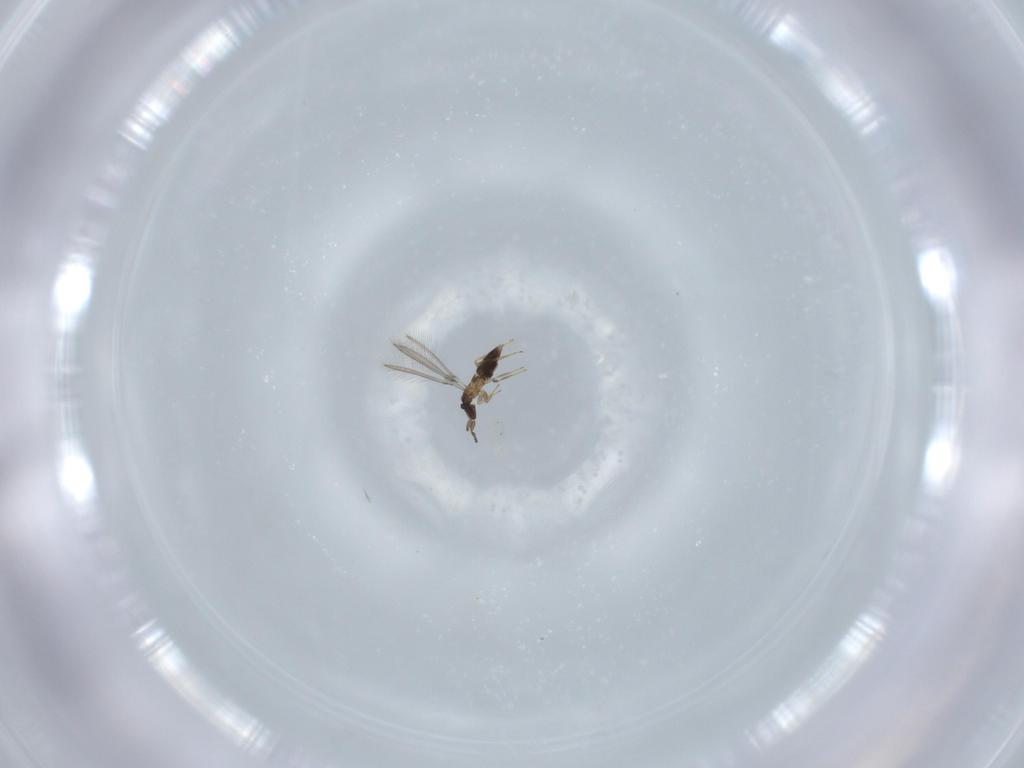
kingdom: Animalia
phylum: Arthropoda
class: Insecta
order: Hymenoptera
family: Mymaridae
